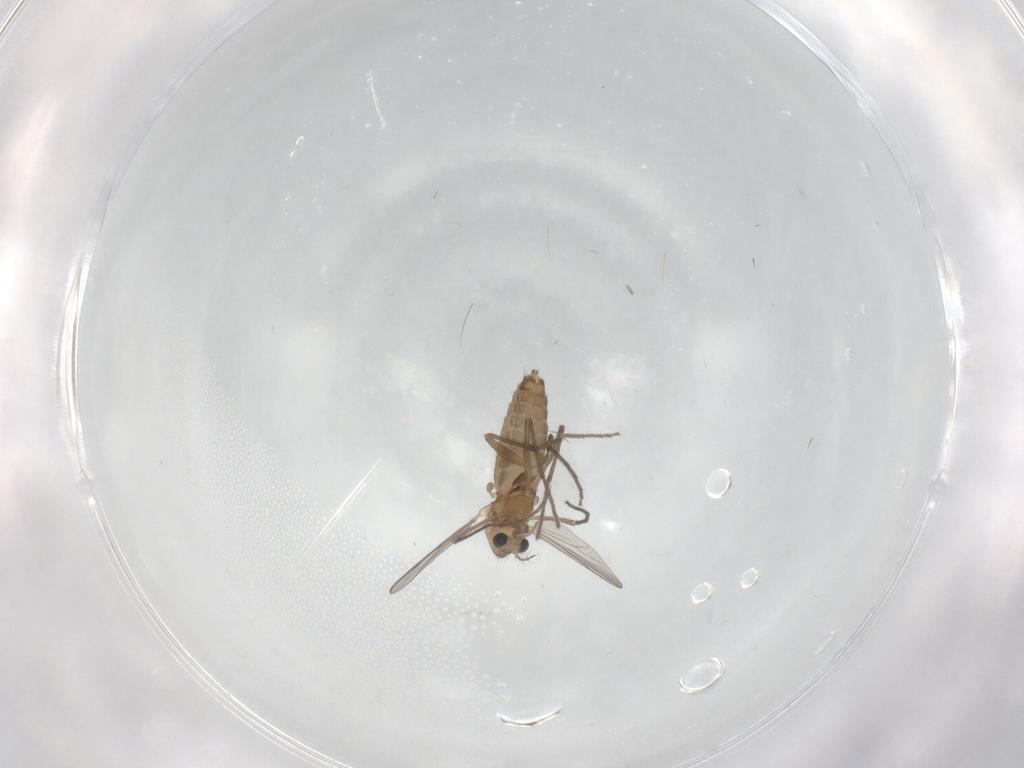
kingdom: Animalia
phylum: Arthropoda
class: Insecta
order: Diptera
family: Chironomidae
